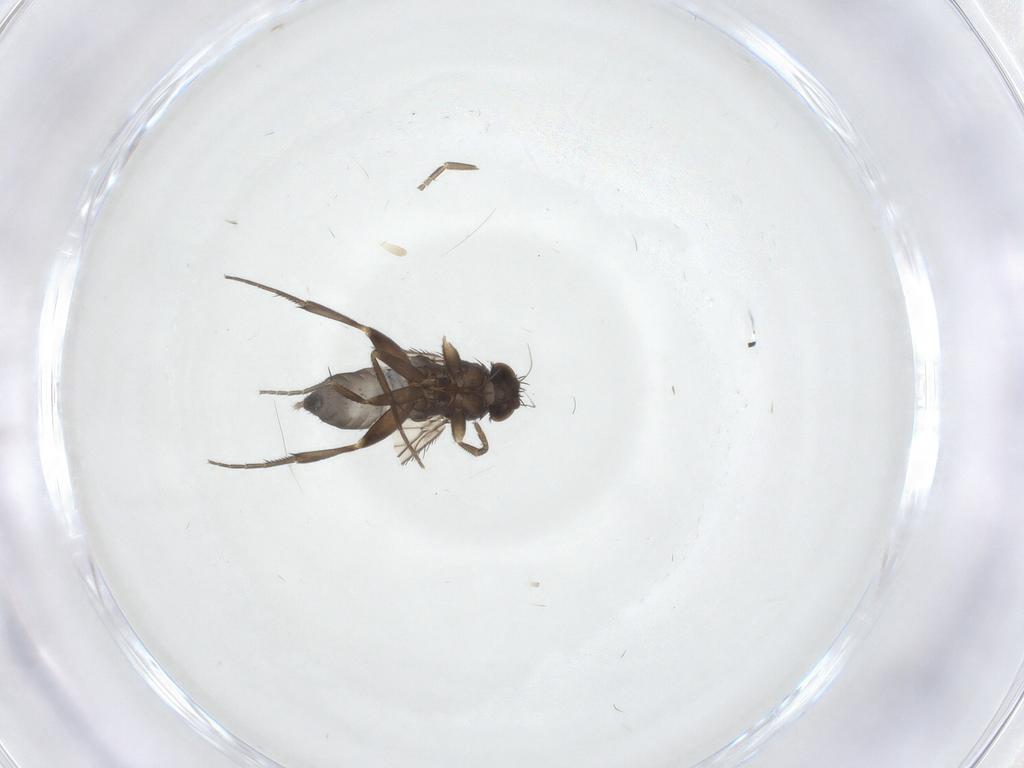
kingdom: Animalia
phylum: Arthropoda
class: Insecta
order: Diptera
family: Phoridae
